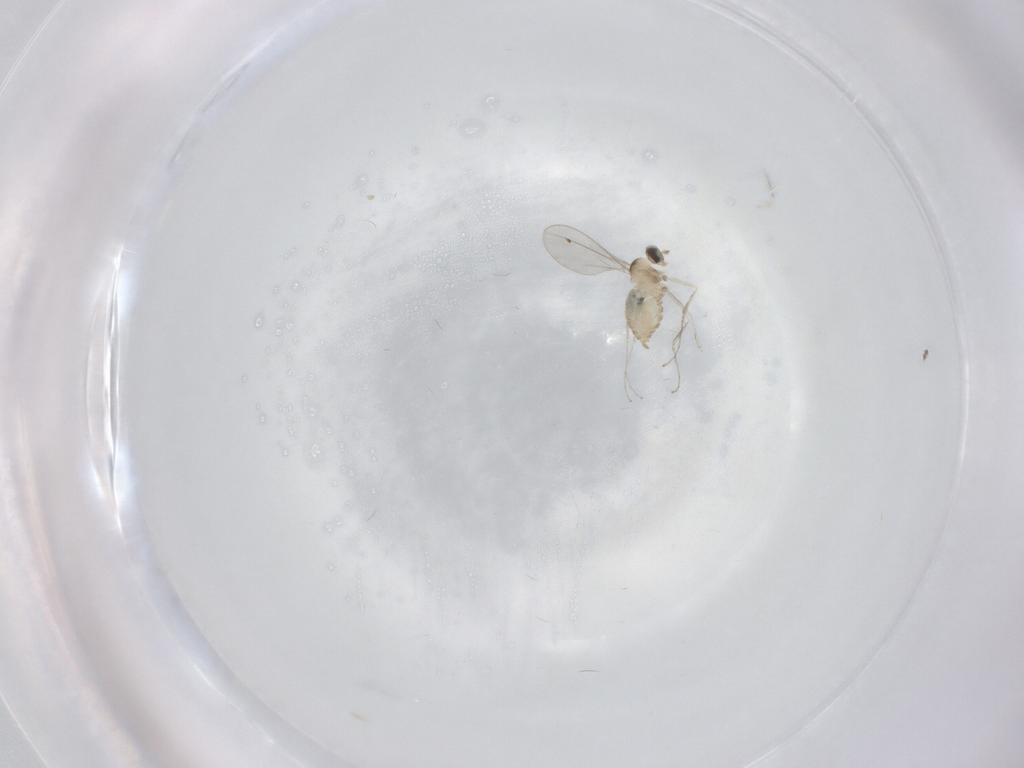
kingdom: Animalia
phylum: Arthropoda
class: Insecta
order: Diptera
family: Cecidomyiidae
